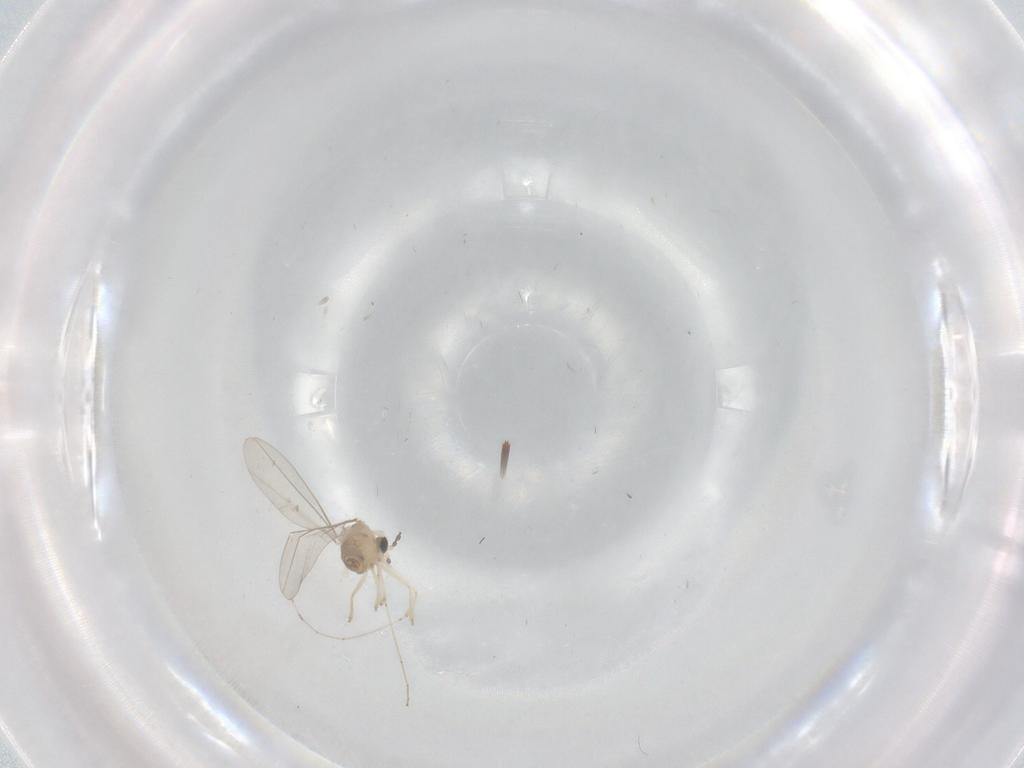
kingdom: Animalia
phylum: Arthropoda
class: Insecta
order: Diptera
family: Cecidomyiidae
